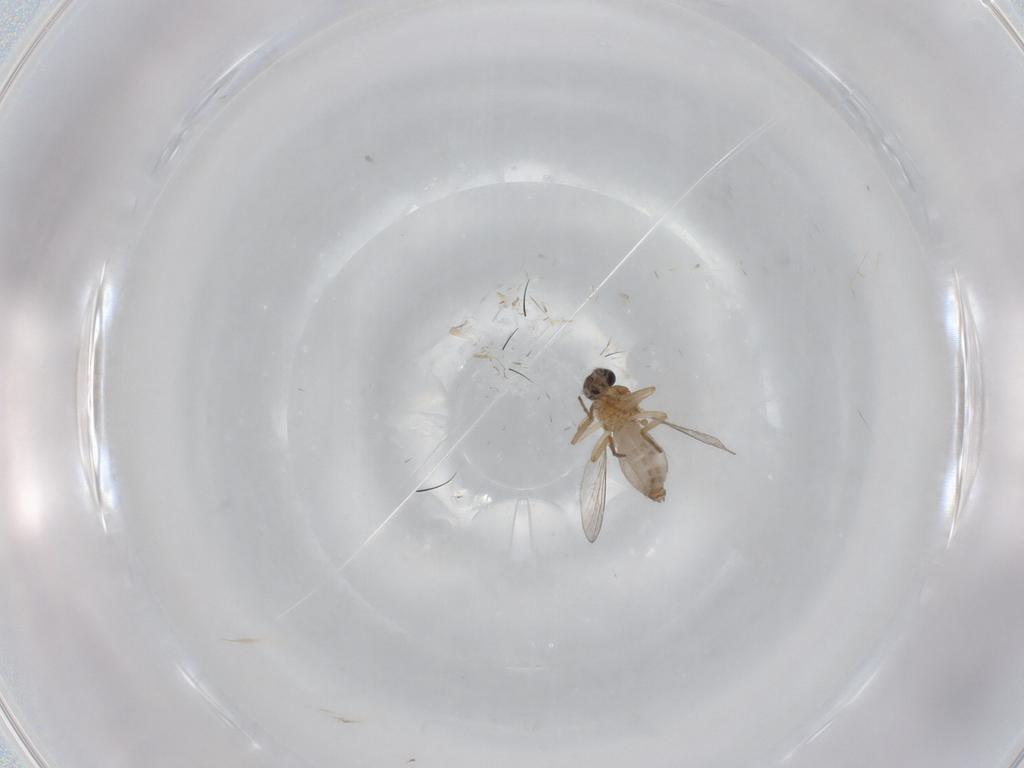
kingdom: Animalia
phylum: Arthropoda
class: Insecta
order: Diptera
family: Ceratopogonidae
